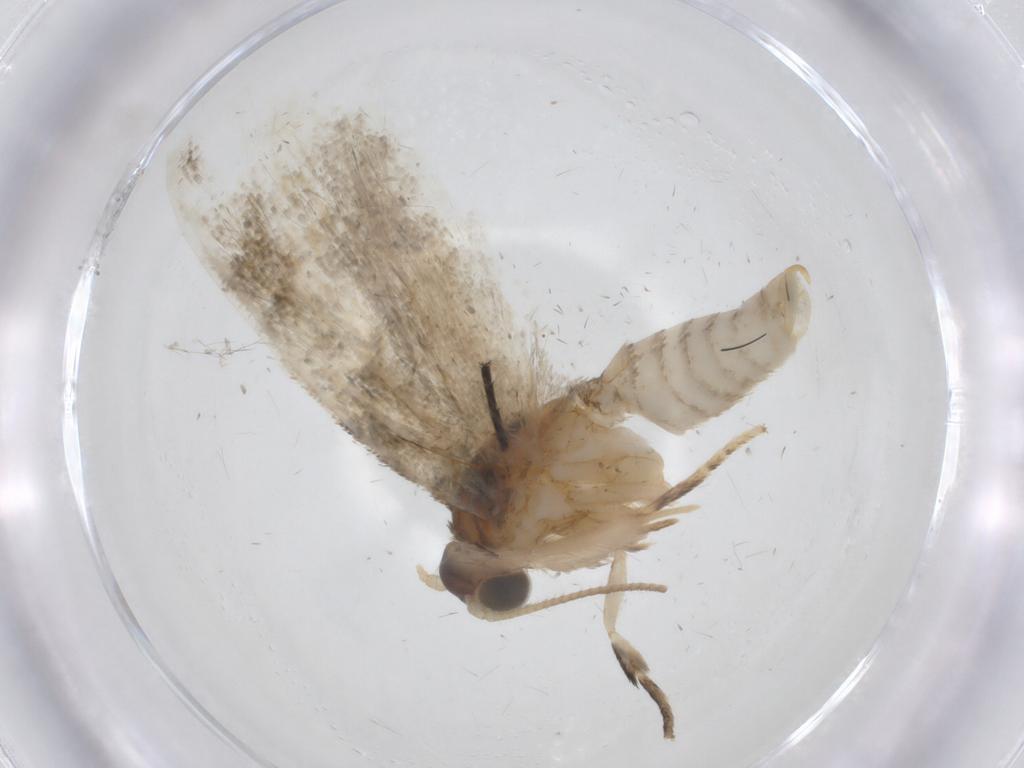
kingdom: Animalia
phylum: Arthropoda
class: Insecta
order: Lepidoptera
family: Tortricidae
